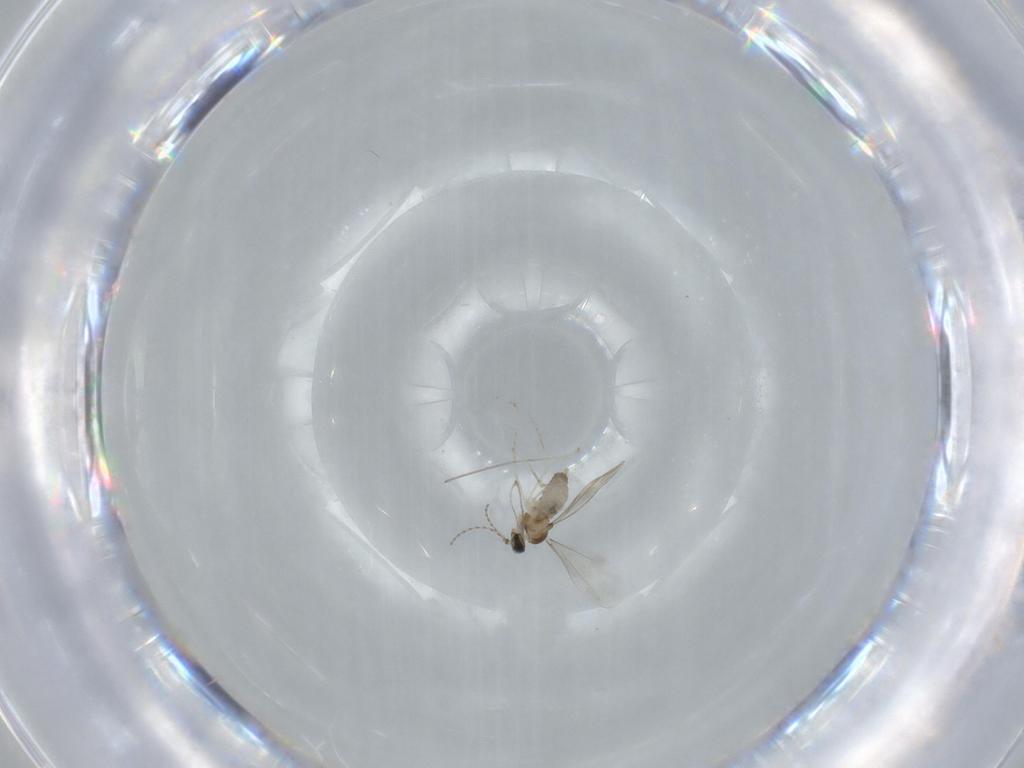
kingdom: Animalia
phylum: Arthropoda
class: Insecta
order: Diptera
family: Cecidomyiidae
